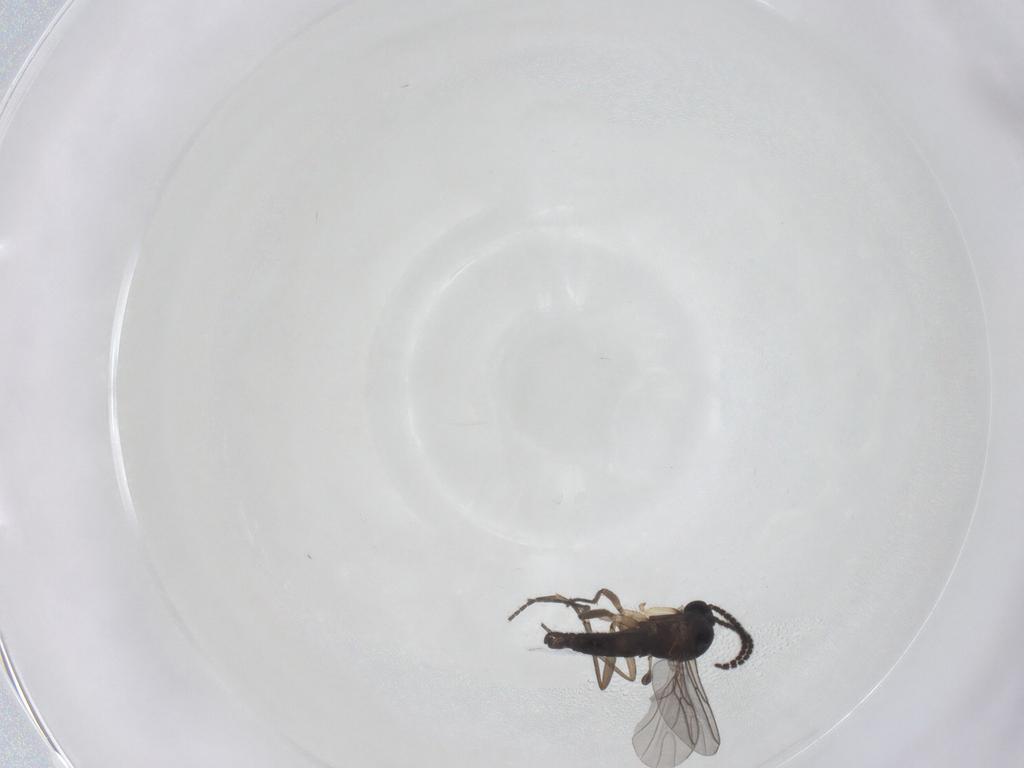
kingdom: Animalia
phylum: Arthropoda
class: Insecta
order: Diptera
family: Sciaridae
